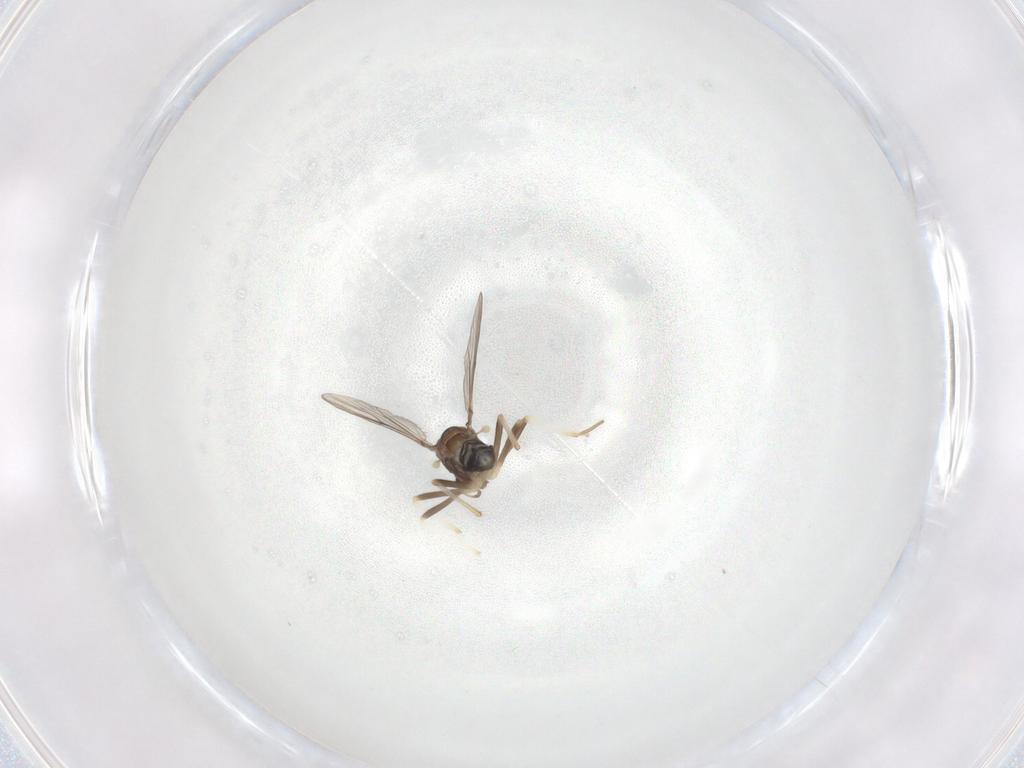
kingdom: Animalia
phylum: Arthropoda
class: Insecta
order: Diptera
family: Chironomidae
